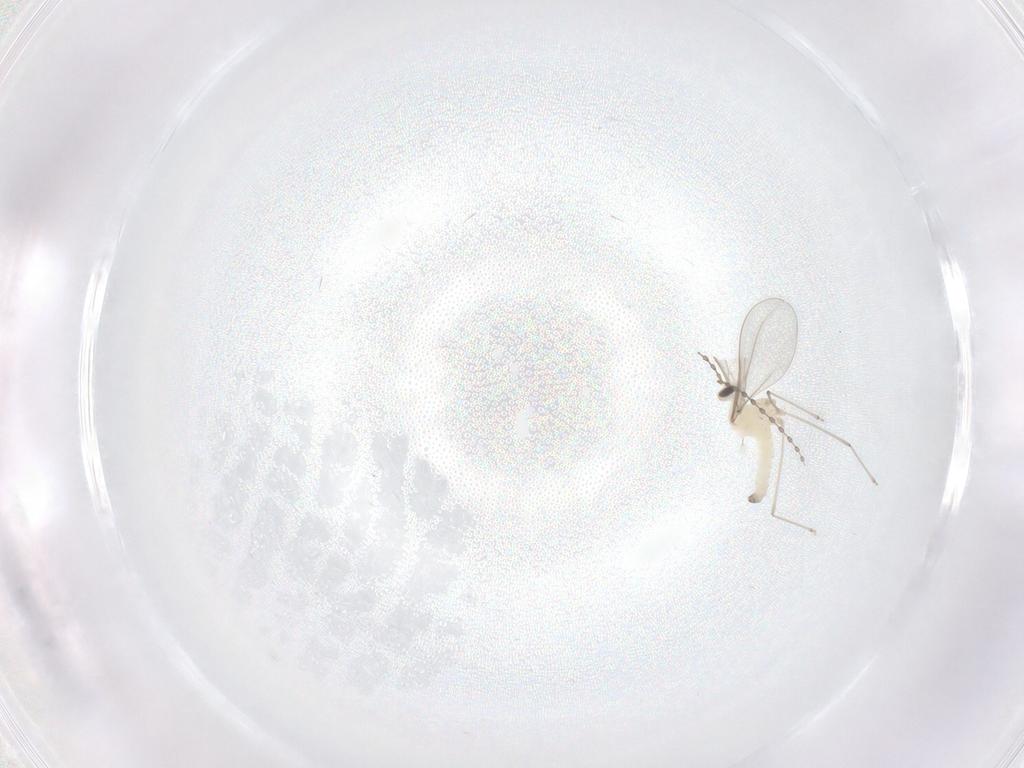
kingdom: Animalia
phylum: Arthropoda
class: Insecta
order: Diptera
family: Cecidomyiidae
